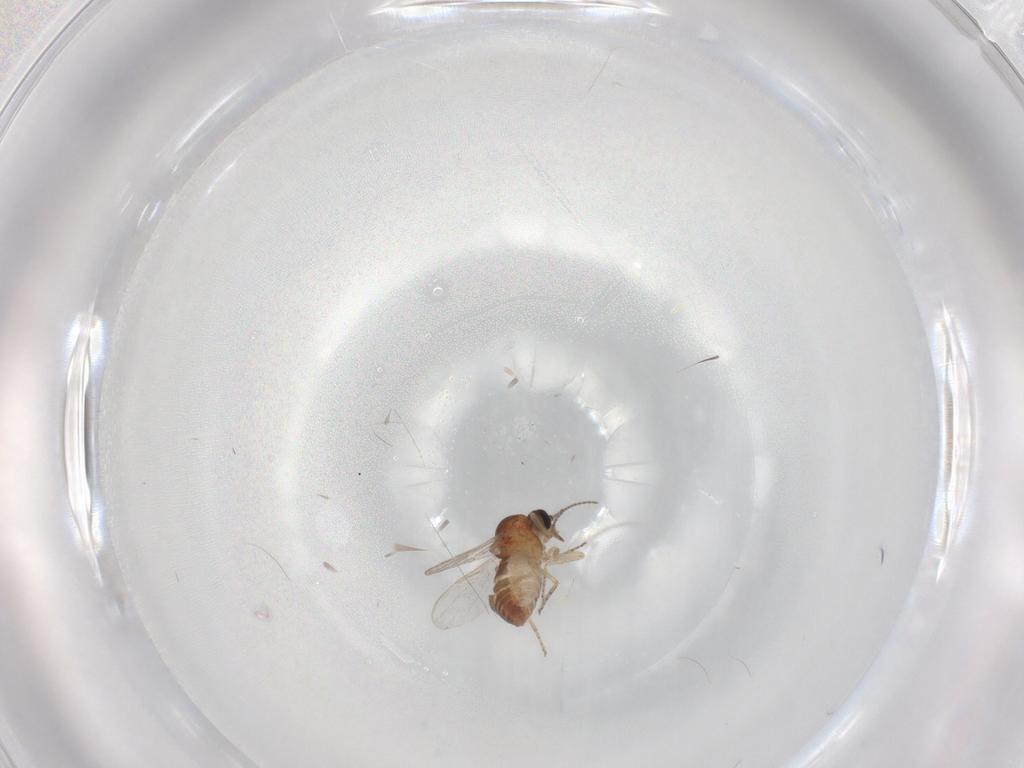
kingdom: Animalia
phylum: Arthropoda
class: Insecta
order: Diptera
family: Ceratopogonidae
